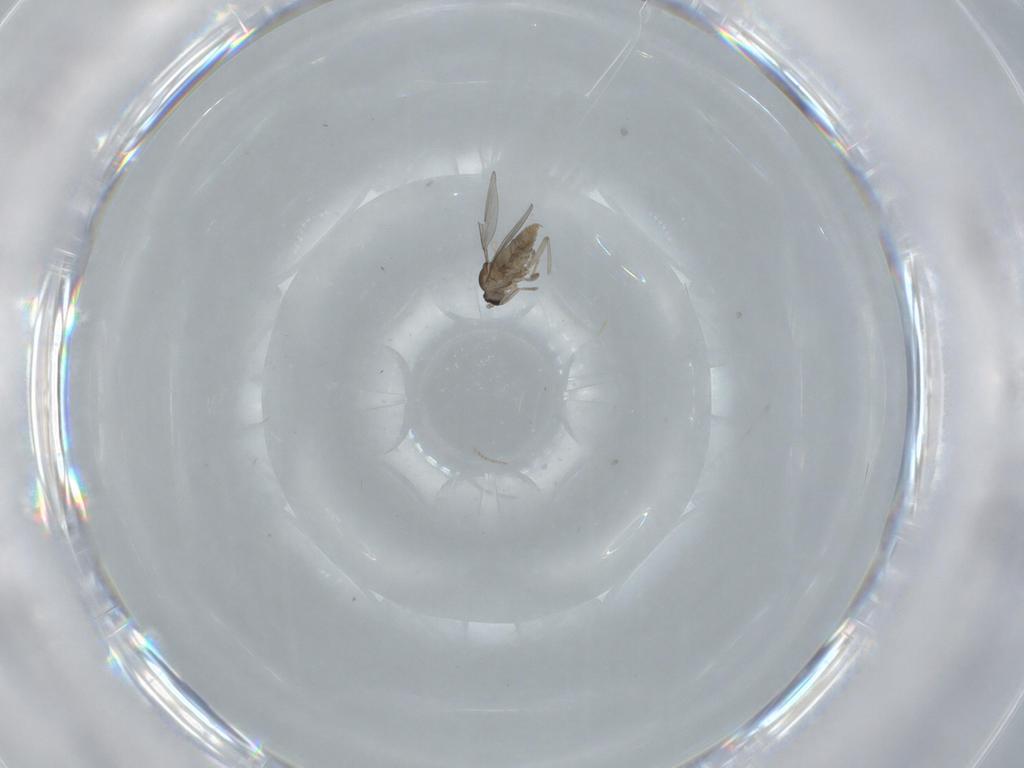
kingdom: Animalia
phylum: Arthropoda
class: Insecta
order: Diptera
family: Cecidomyiidae
